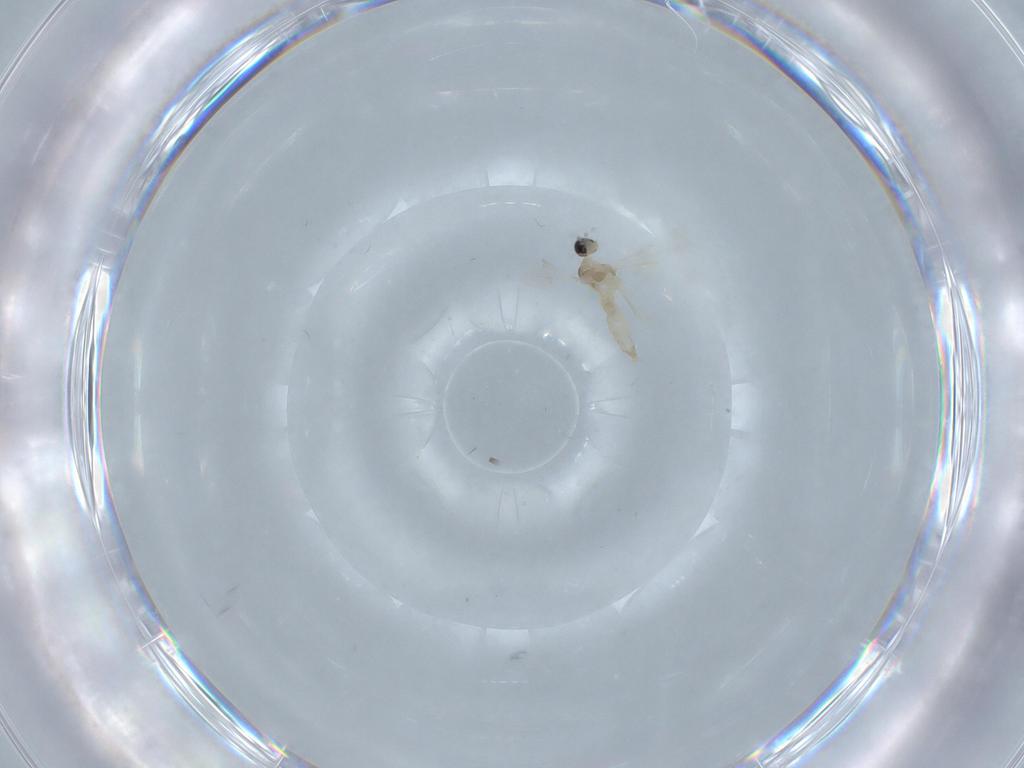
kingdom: Animalia
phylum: Arthropoda
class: Insecta
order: Diptera
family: Cecidomyiidae
